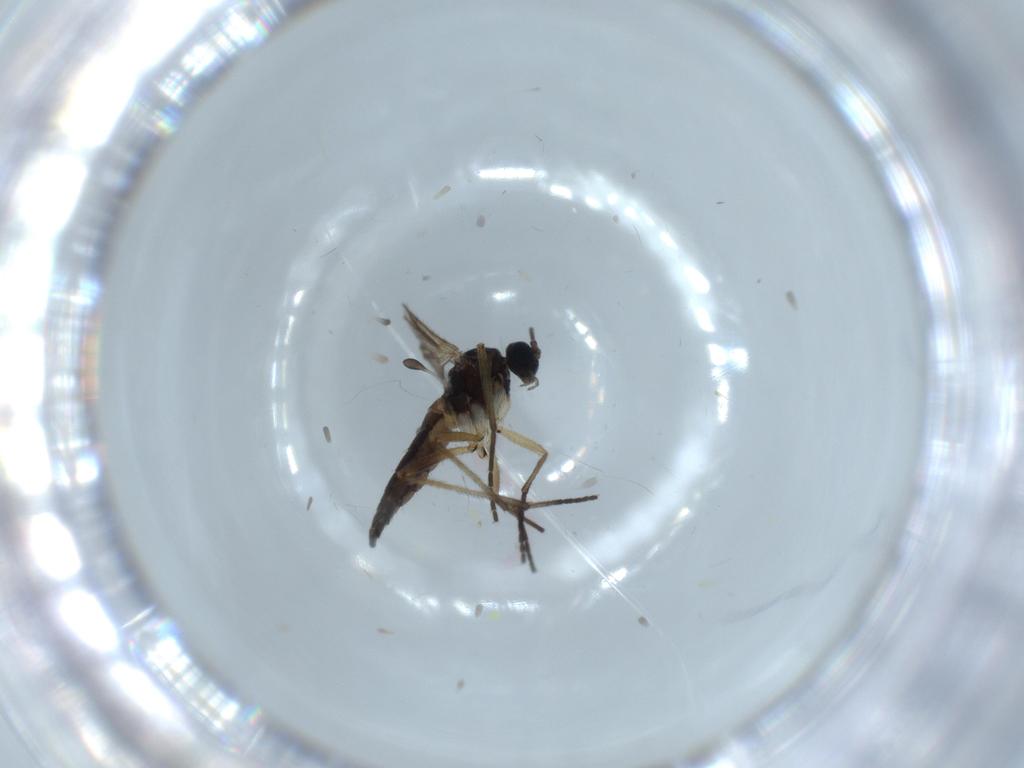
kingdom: Animalia
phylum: Arthropoda
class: Insecta
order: Diptera
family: Sciaridae
